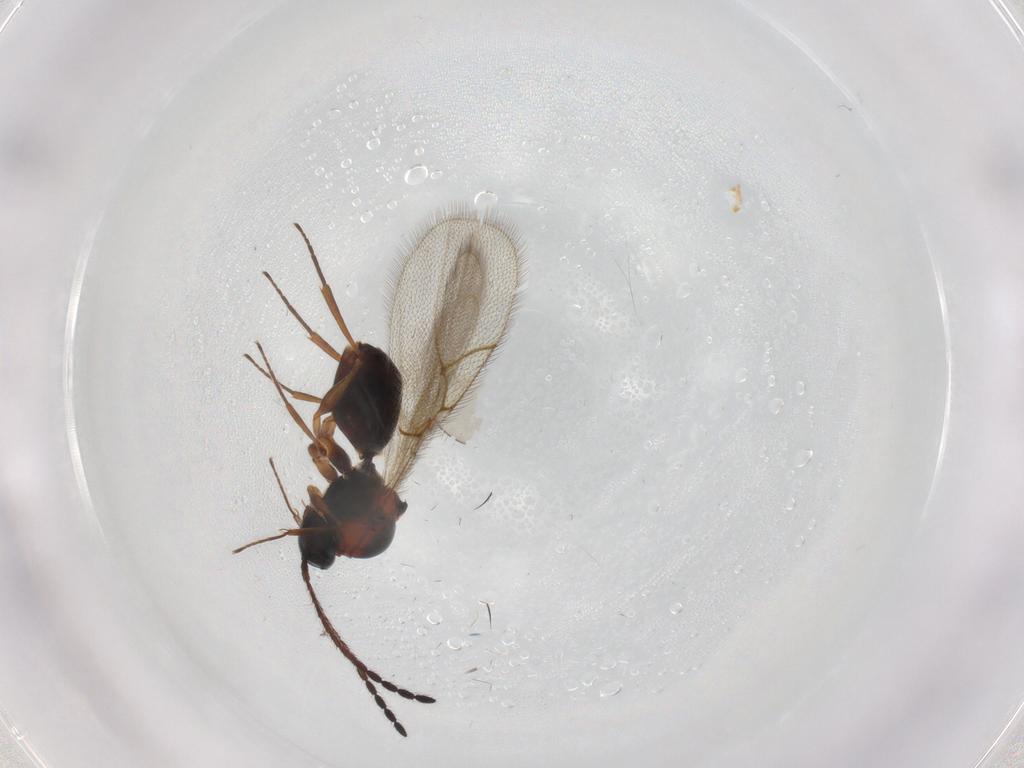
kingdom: Animalia
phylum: Arthropoda
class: Insecta
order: Hymenoptera
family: Figitidae
